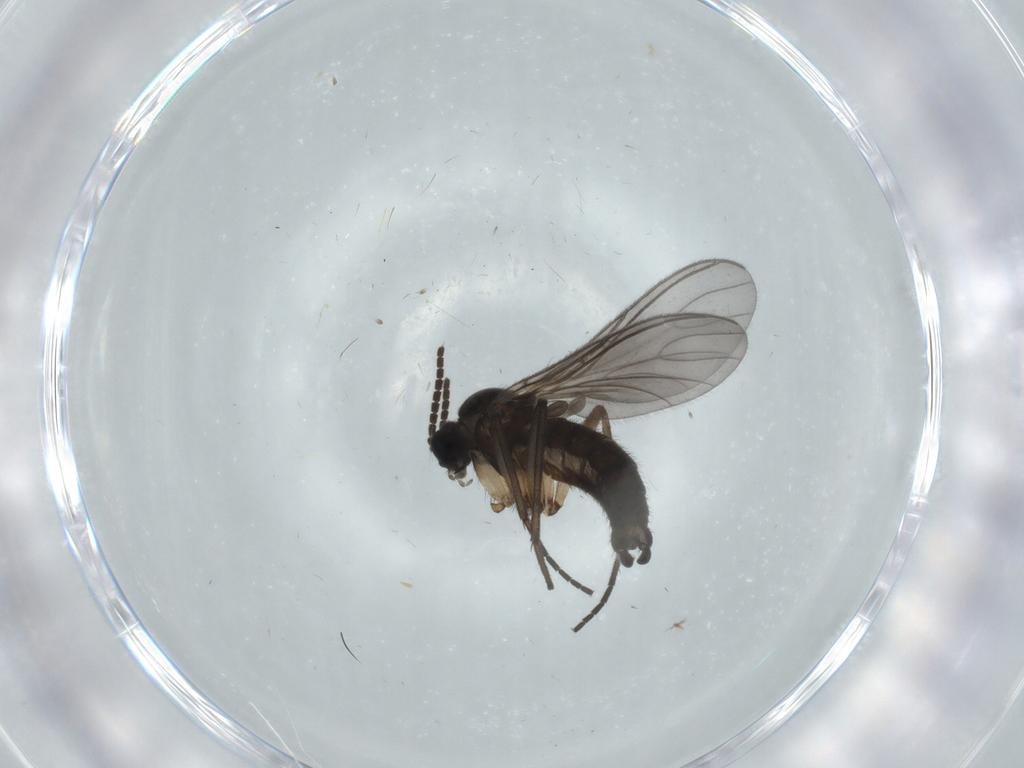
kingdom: Animalia
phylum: Arthropoda
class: Insecta
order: Diptera
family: Sciaridae
